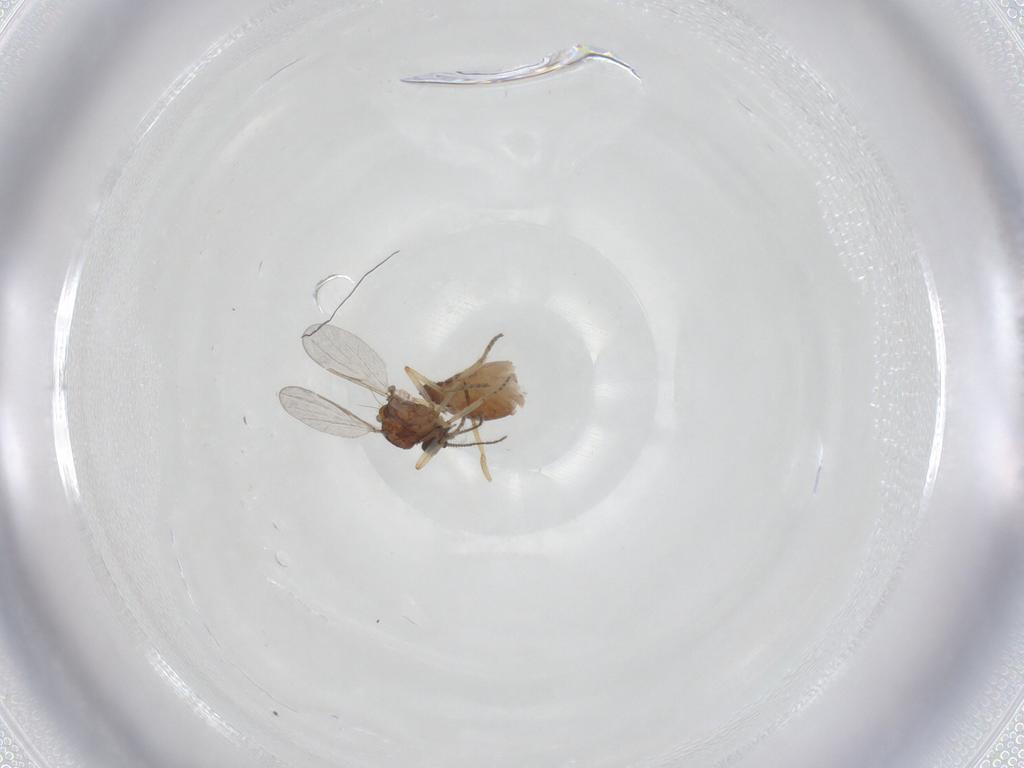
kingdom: Animalia
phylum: Arthropoda
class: Insecta
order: Diptera
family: Ceratopogonidae
